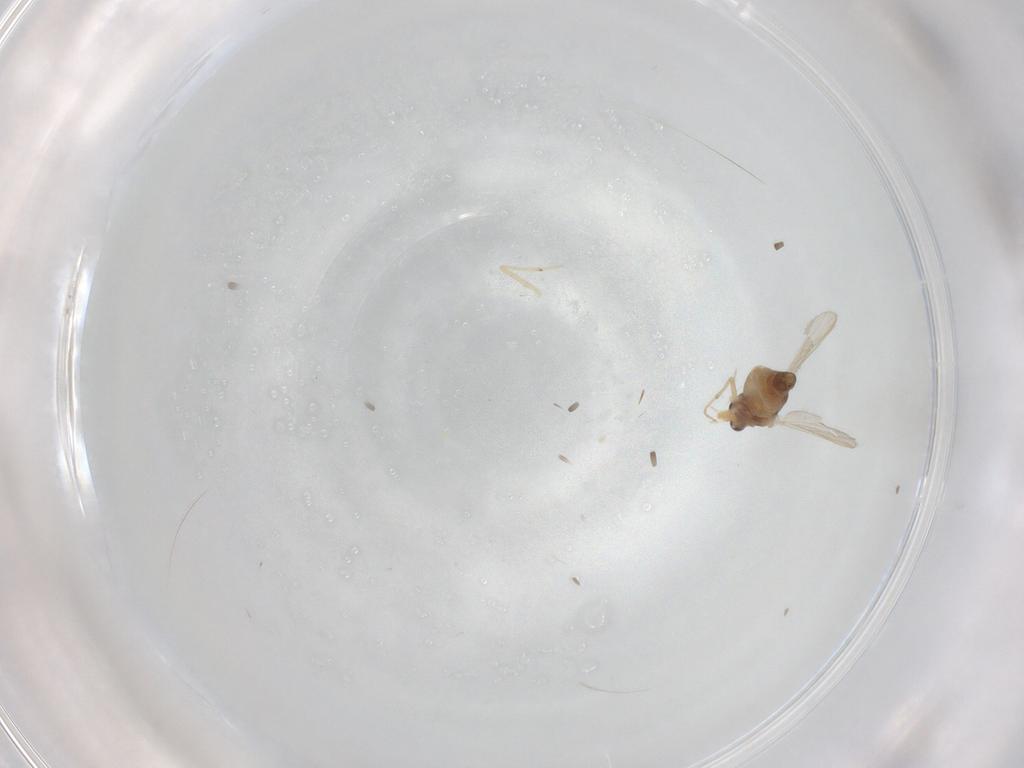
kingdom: Animalia
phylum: Arthropoda
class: Insecta
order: Diptera
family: Chironomidae
